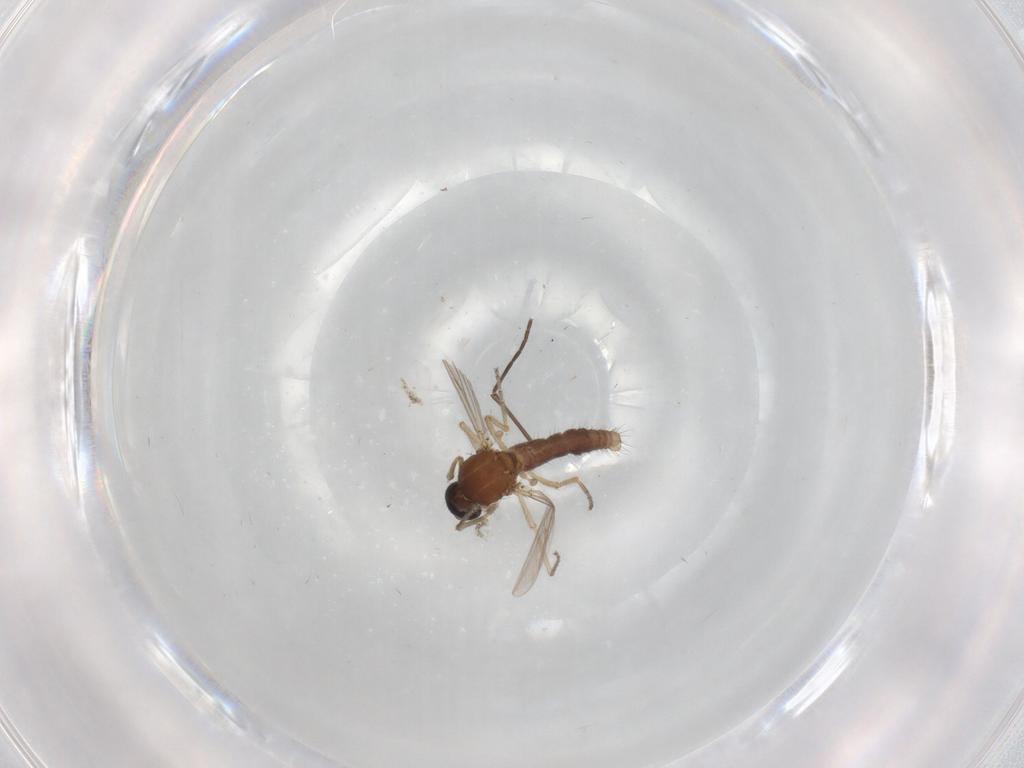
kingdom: Animalia
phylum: Arthropoda
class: Insecta
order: Diptera
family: Ceratopogonidae
